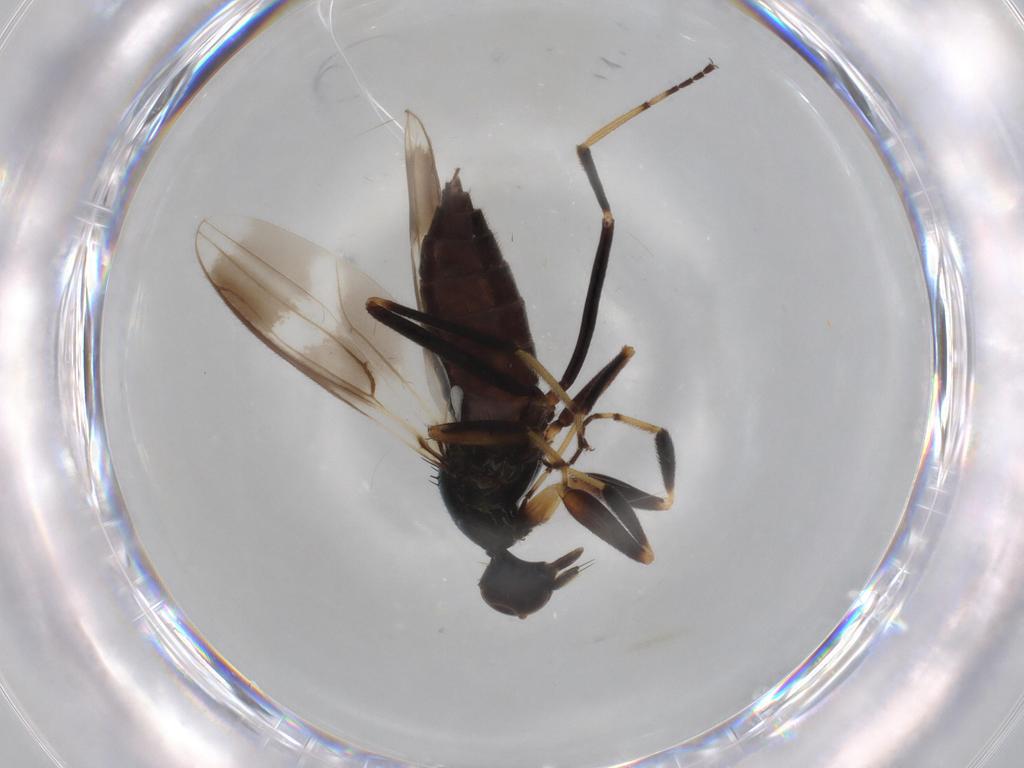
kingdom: Animalia
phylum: Arthropoda
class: Insecta
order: Diptera
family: Hybotidae
